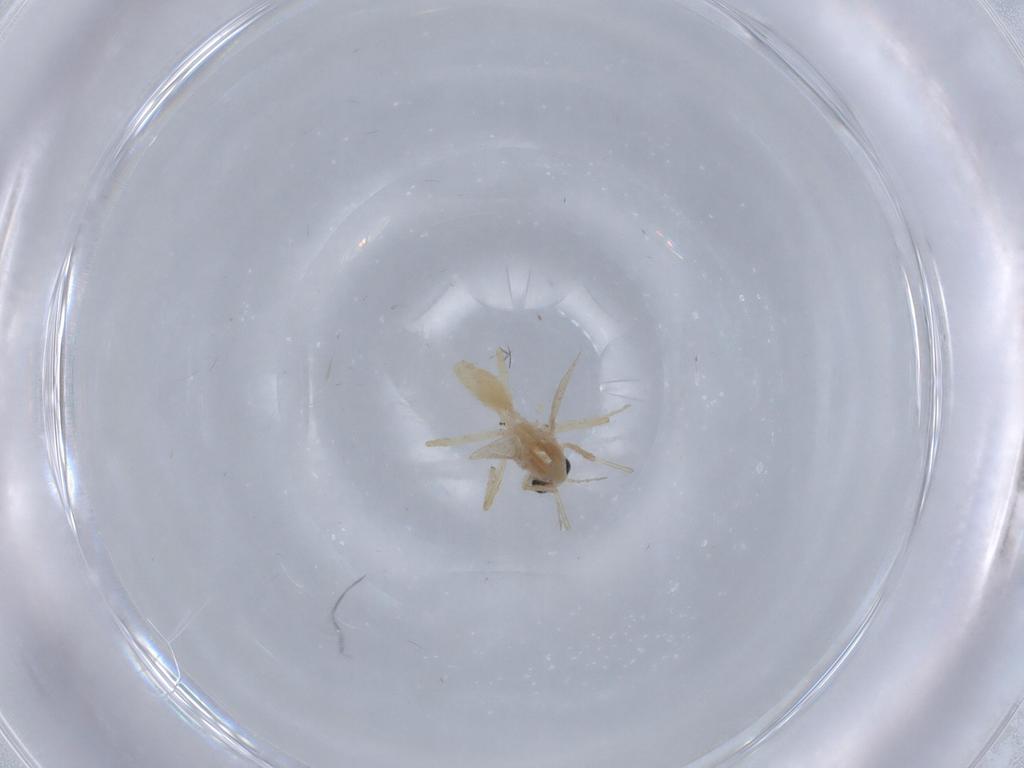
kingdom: Animalia
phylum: Arthropoda
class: Insecta
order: Diptera
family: Chironomidae
